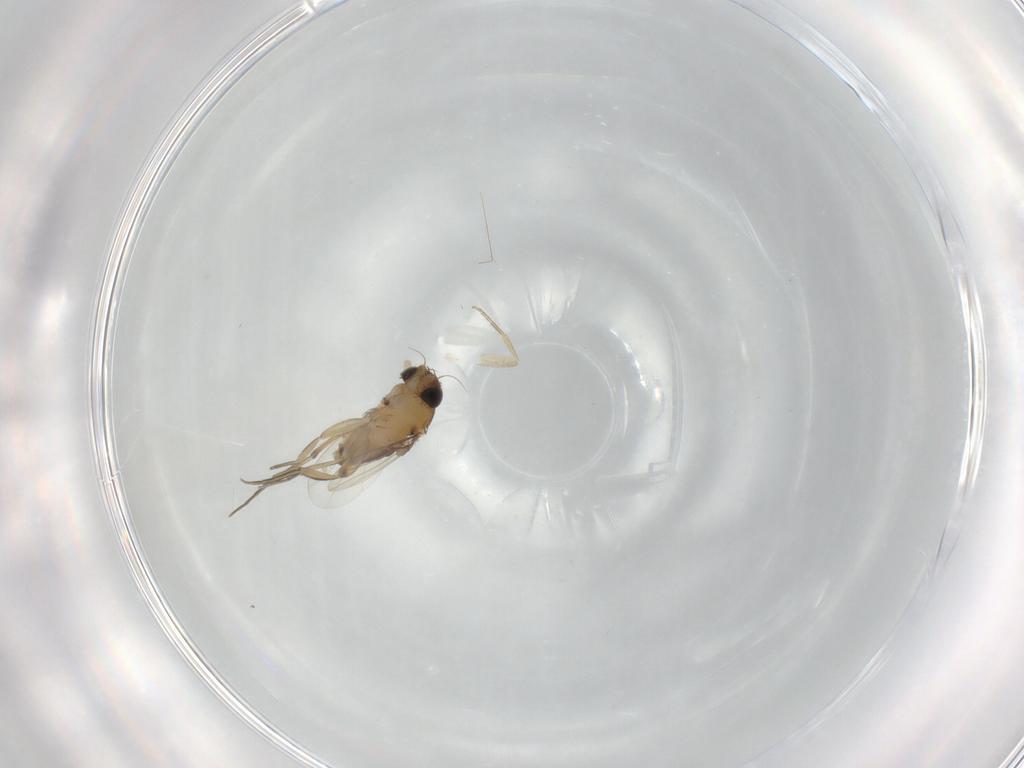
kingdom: Animalia
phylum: Arthropoda
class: Insecta
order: Diptera
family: Phoridae
